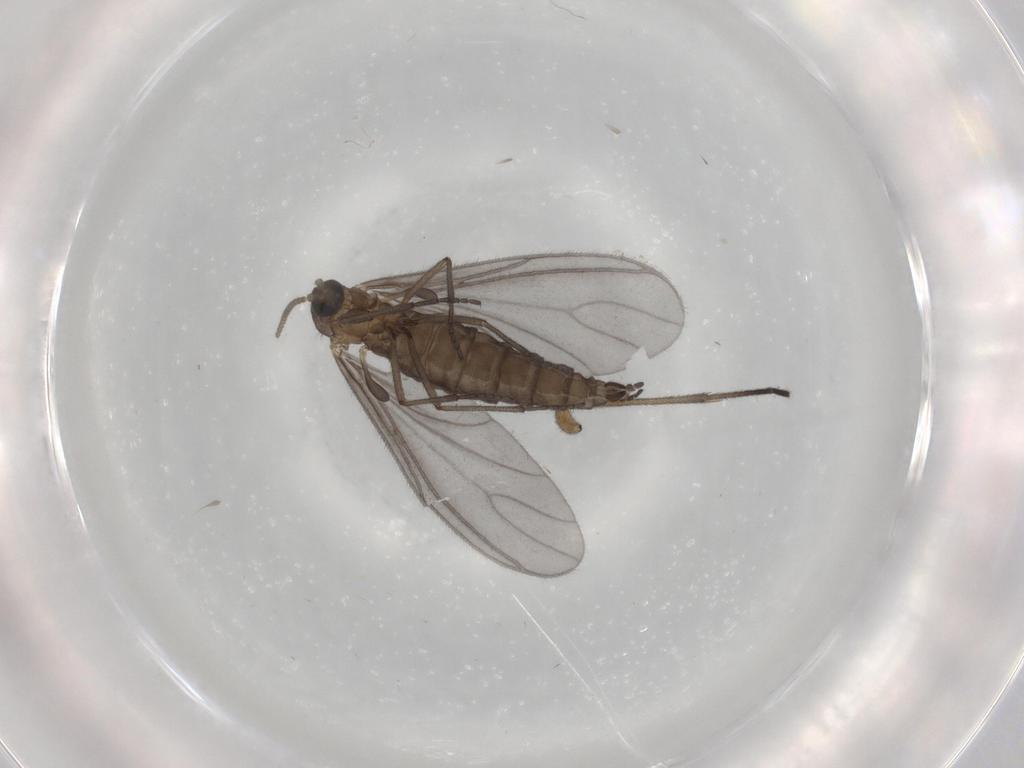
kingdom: Animalia
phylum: Arthropoda
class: Insecta
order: Diptera
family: Sciaridae
